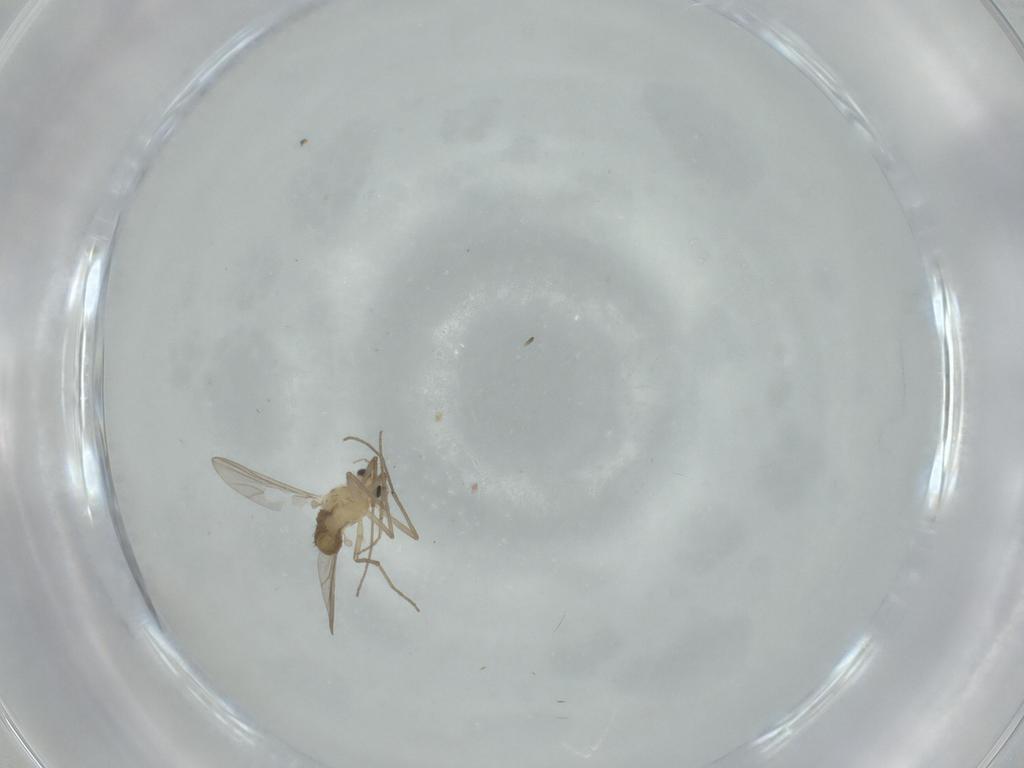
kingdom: Animalia
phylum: Arthropoda
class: Insecta
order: Diptera
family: Chironomidae
